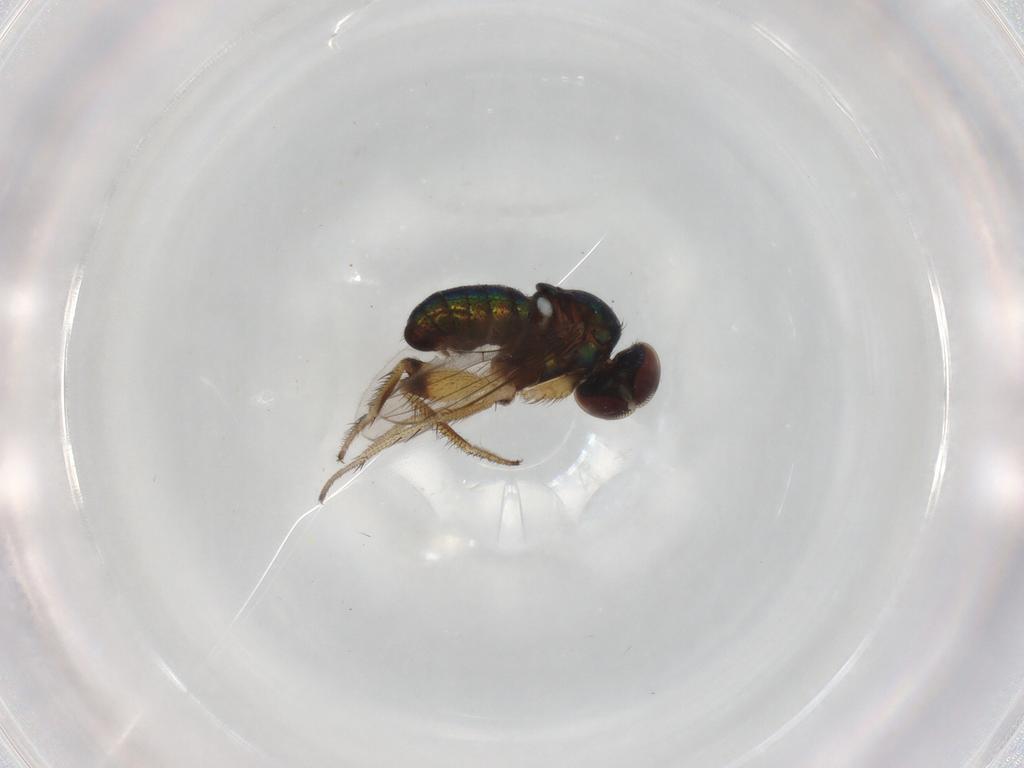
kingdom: Animalia
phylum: Arthropoda
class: Insecta
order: Diptera
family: Phoridae
